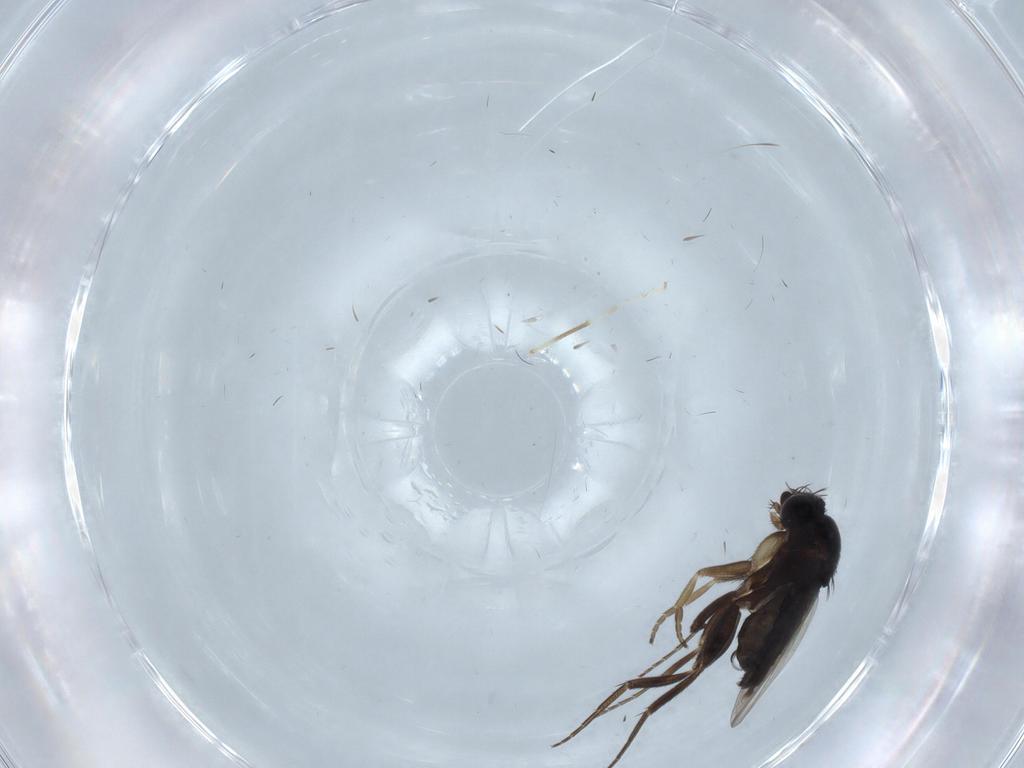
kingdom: Animalia
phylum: Arthropoda
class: Insecta
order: Diptera
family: Phoridae
